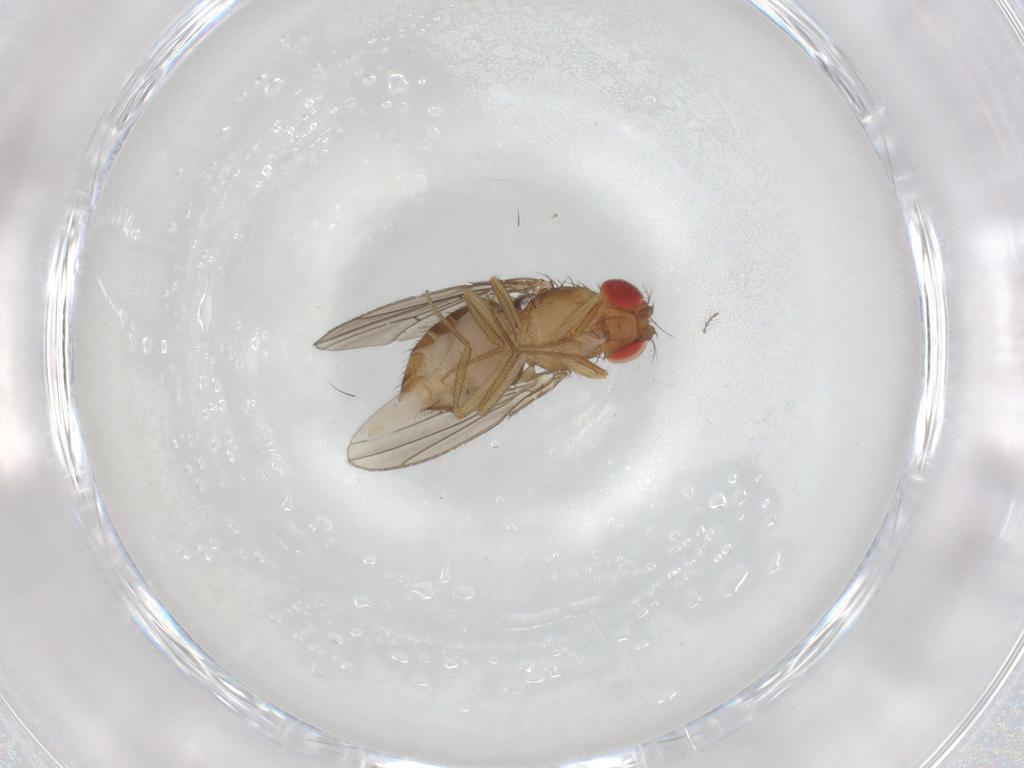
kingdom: Animalia
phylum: Arthropoda
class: Insecta
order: Diptera
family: Drosophilidae
